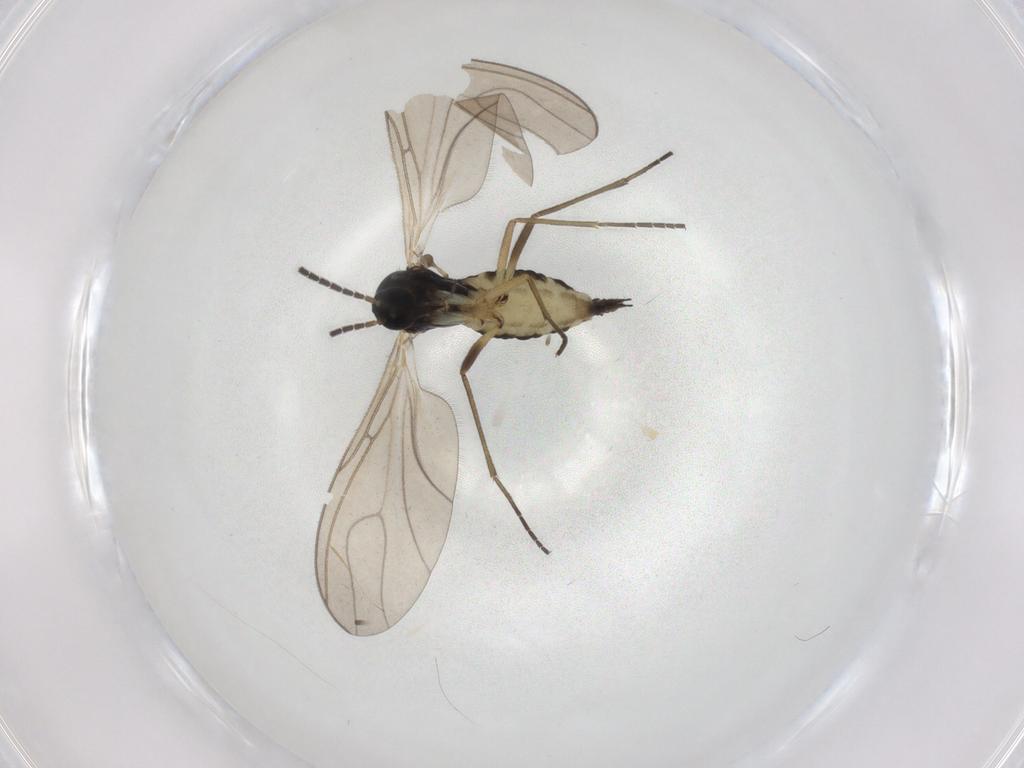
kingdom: Animalia
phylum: Arthropoda
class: Insecta
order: Diptera
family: Sciaridae
